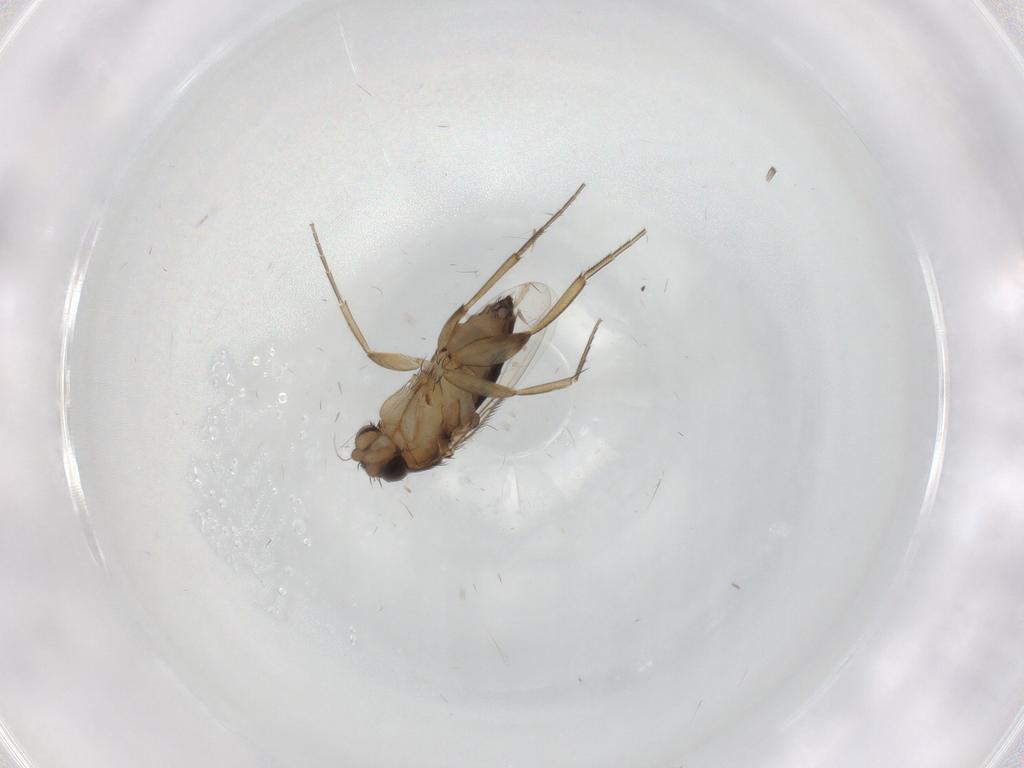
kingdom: Animalia
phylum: Arthropoda
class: Insecta
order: Diptera
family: Phoridae
